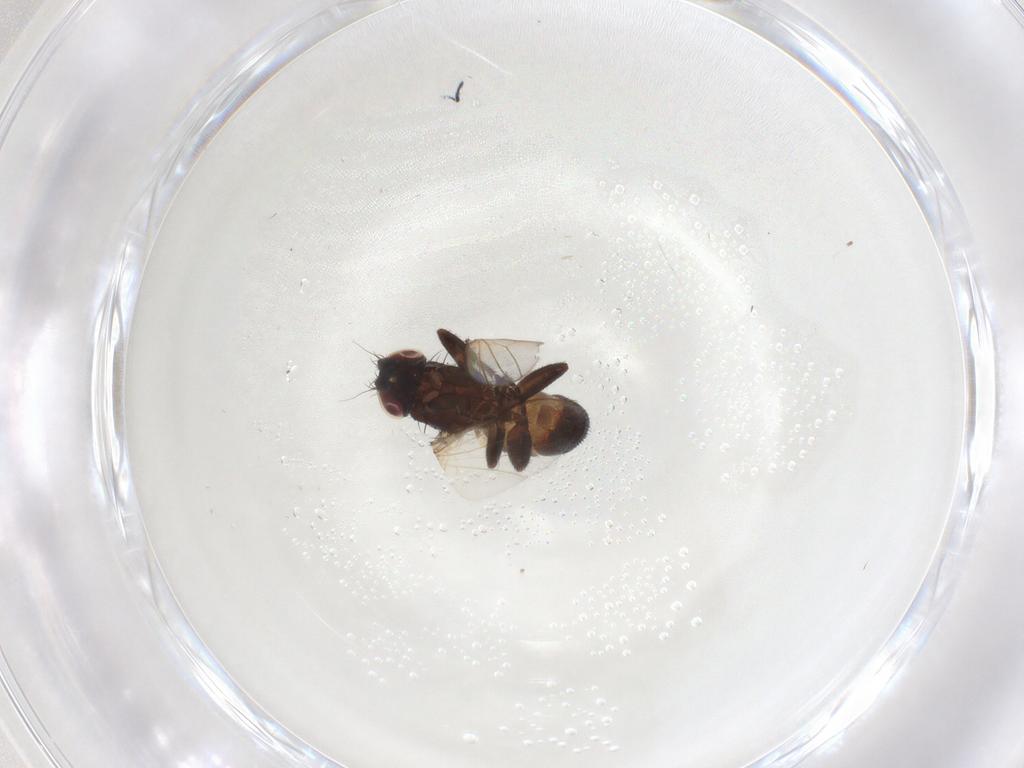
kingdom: Animalia
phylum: Arthropoda
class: Insecta
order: Diptera
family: Milichiidae
